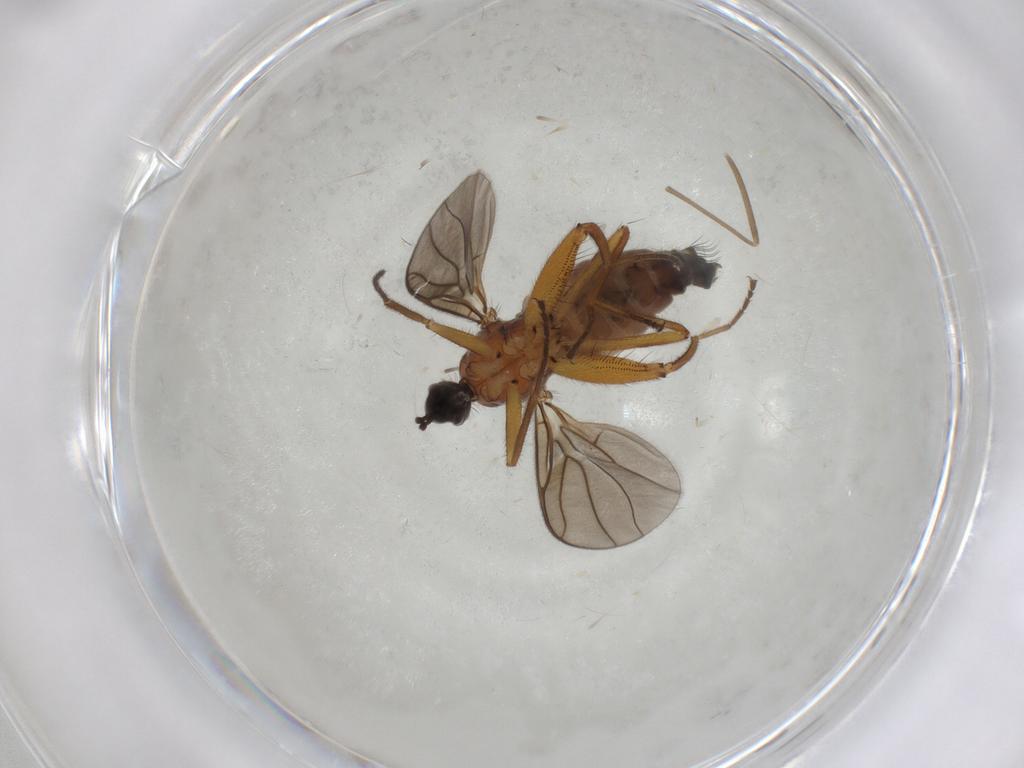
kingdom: Animalia
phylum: Arthropoda
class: Insecta
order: Diptera
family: Hybotidae
